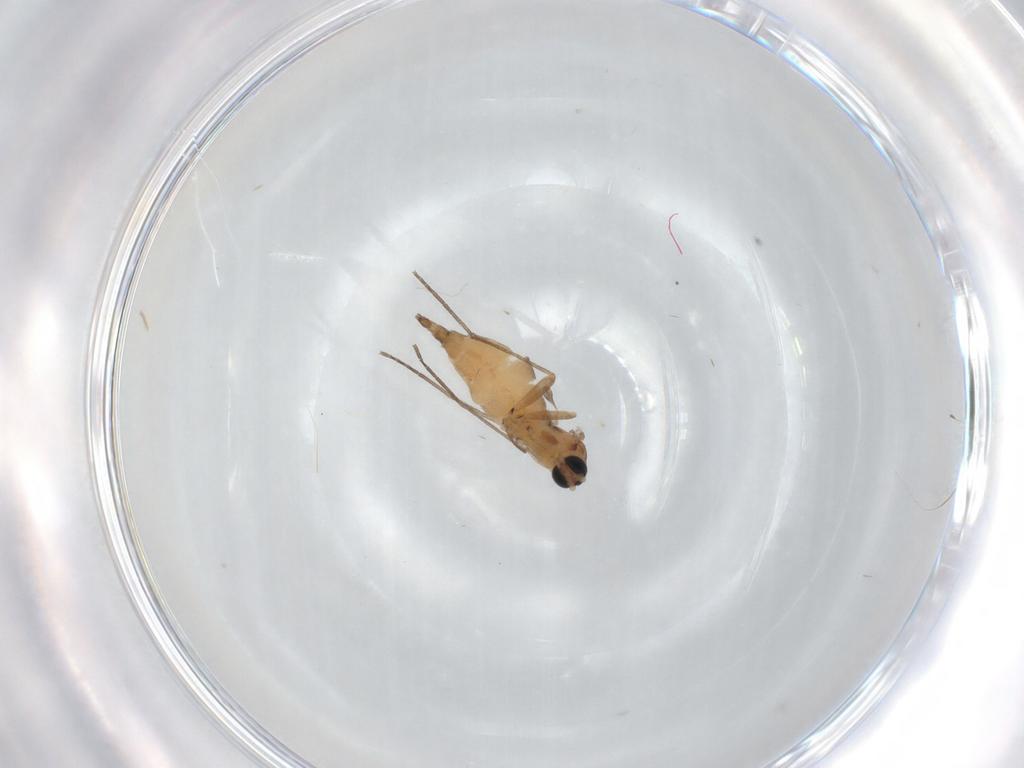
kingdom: Animalia
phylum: Arthropoda
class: Insecta
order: Diptera
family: Sciaridae
